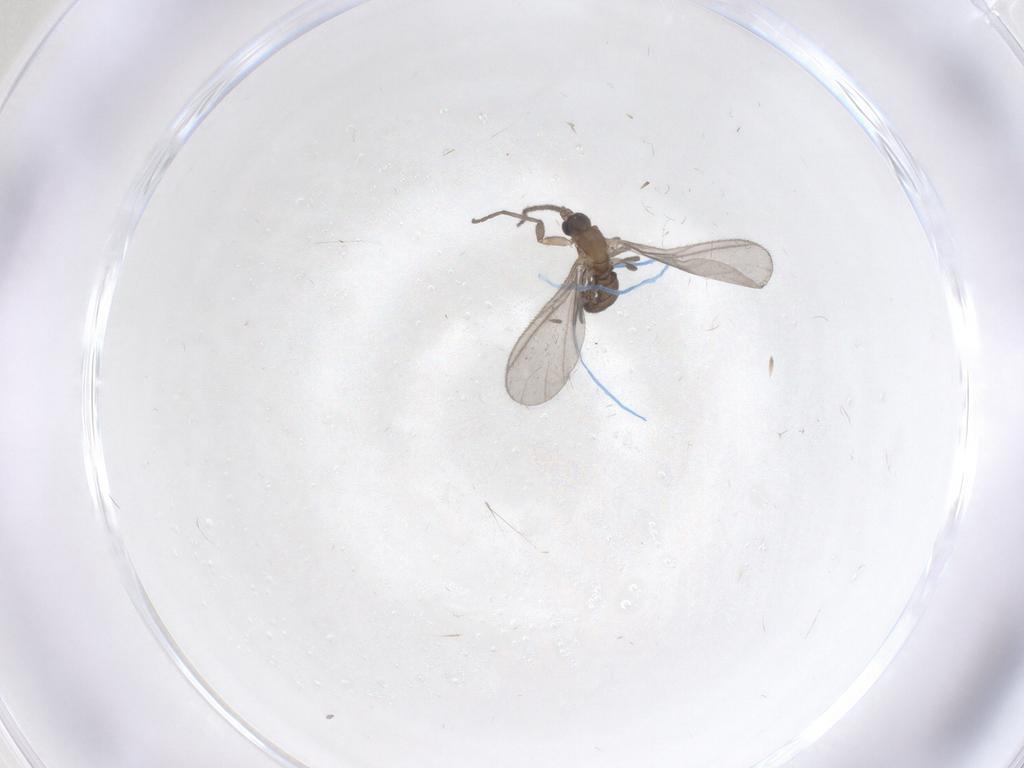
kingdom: Animalia
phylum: Arthropoda
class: Insecta
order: Diptera
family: Sciaridae
